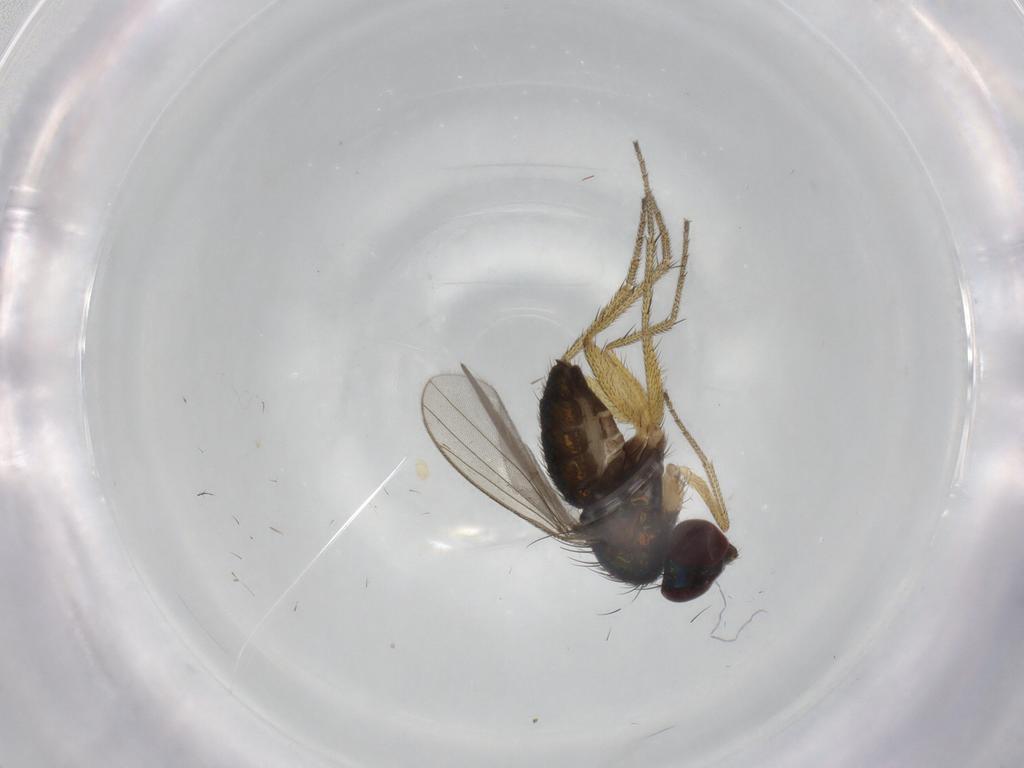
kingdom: Animalia
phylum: Arthropoda
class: Insecta
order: Diptera
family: Dolichopodidae
